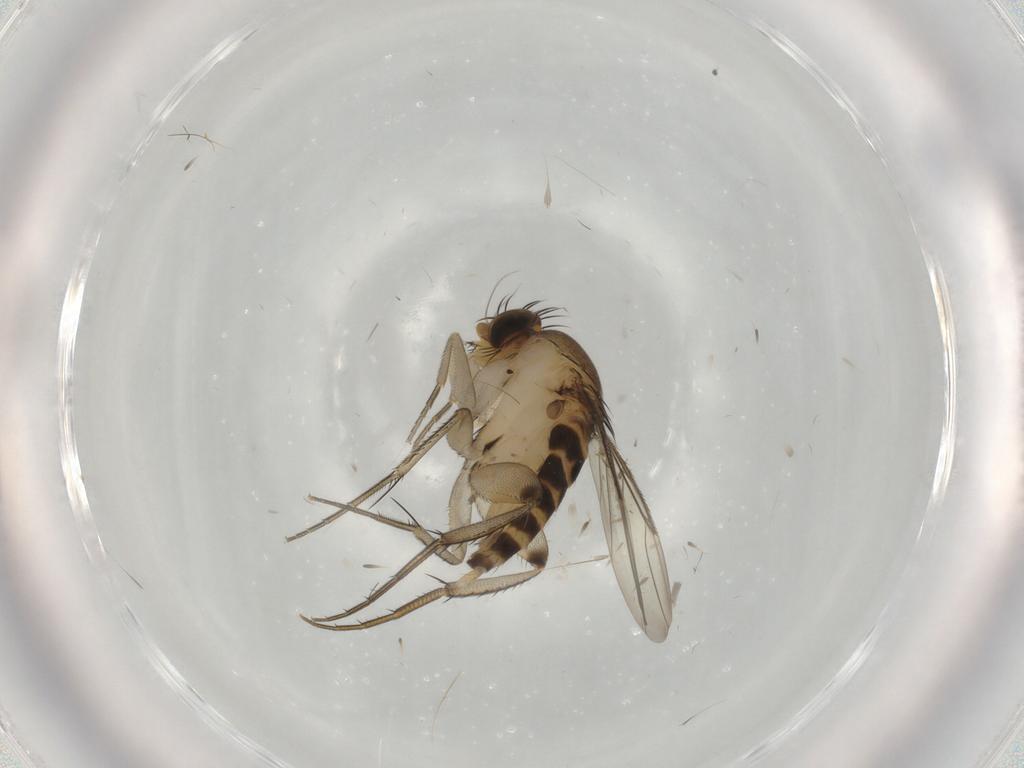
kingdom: Animalia
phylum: Arthropoda
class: Insecta
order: Diptera
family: Phoridae
